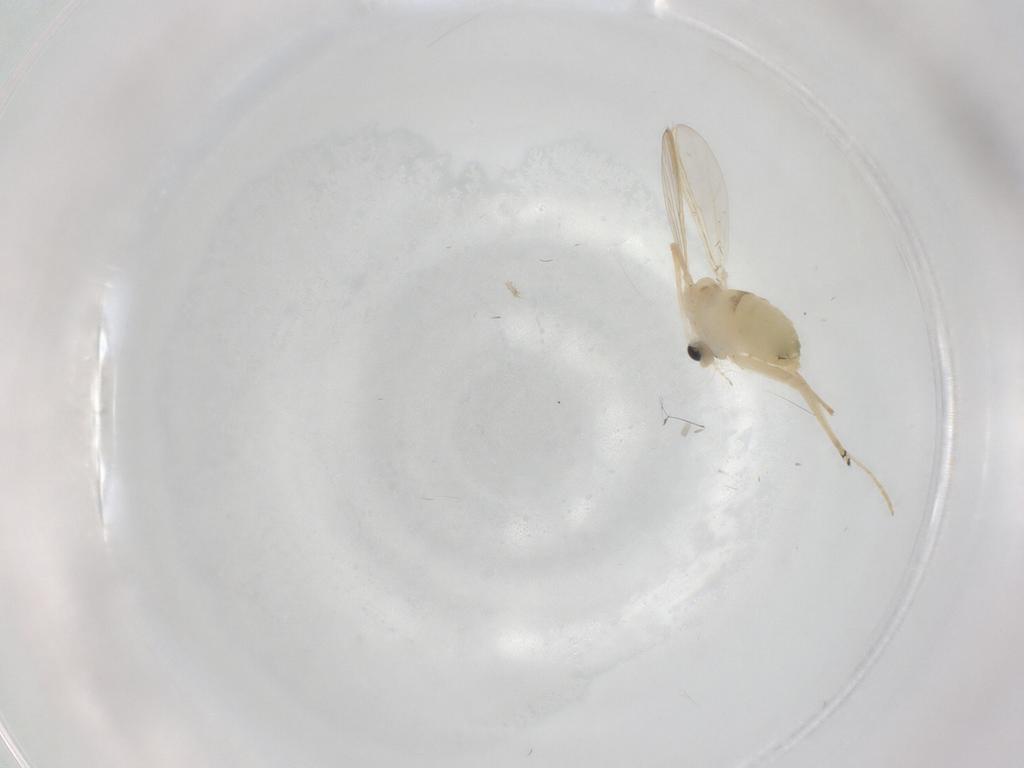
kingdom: Animalia
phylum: Arthropoda
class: Insecta
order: Diptera
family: Chironomidae
